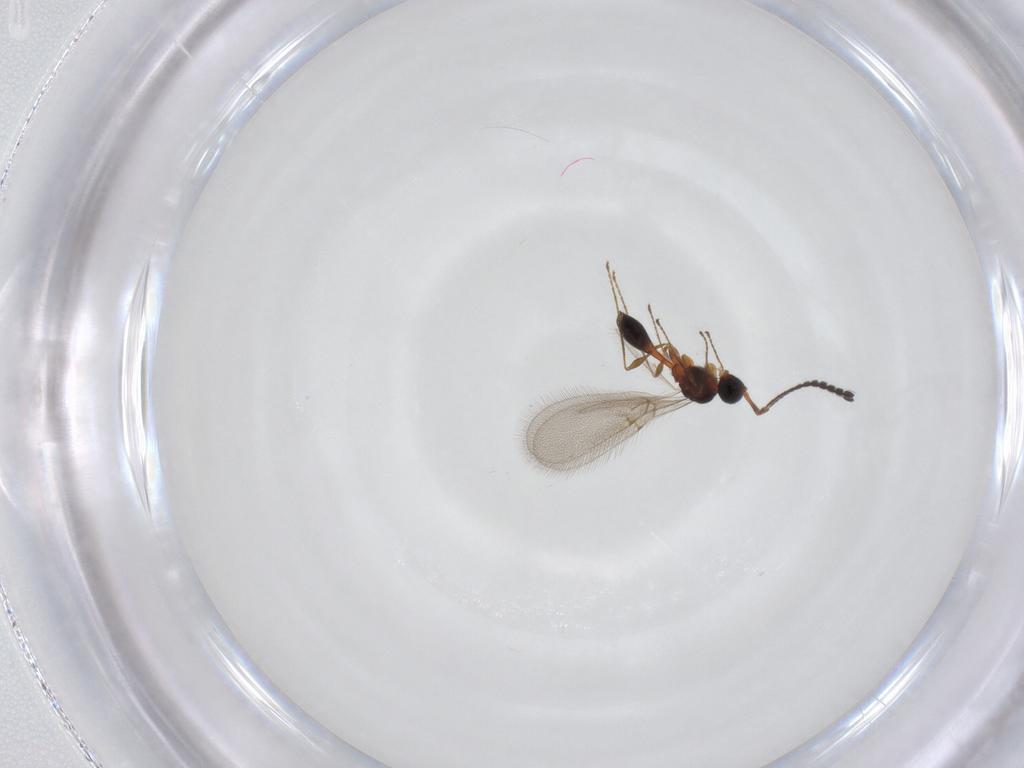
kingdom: Animalia
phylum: Arthropoda
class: Insecta
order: Hymenoptera
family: Diapriidae
